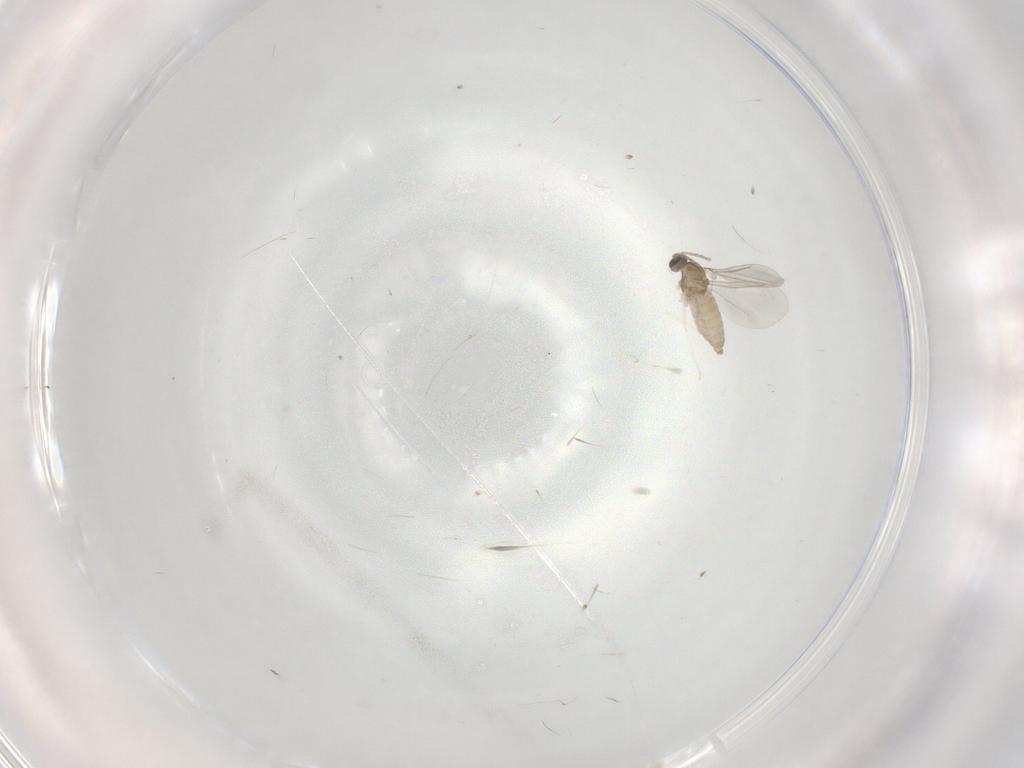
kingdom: Animalia
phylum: Arthropoda
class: Insecta
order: Diptera
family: Cecidomyiidae
